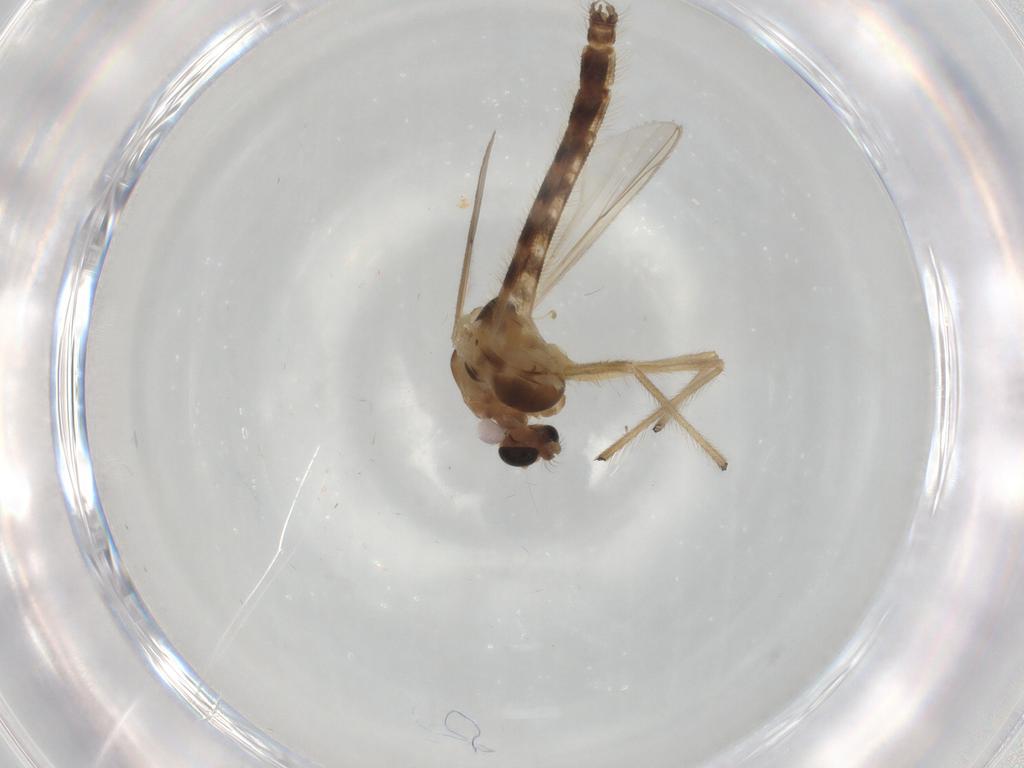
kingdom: Animalia
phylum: Arthropoda
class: Insecta
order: Diptera
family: Chironomidae
